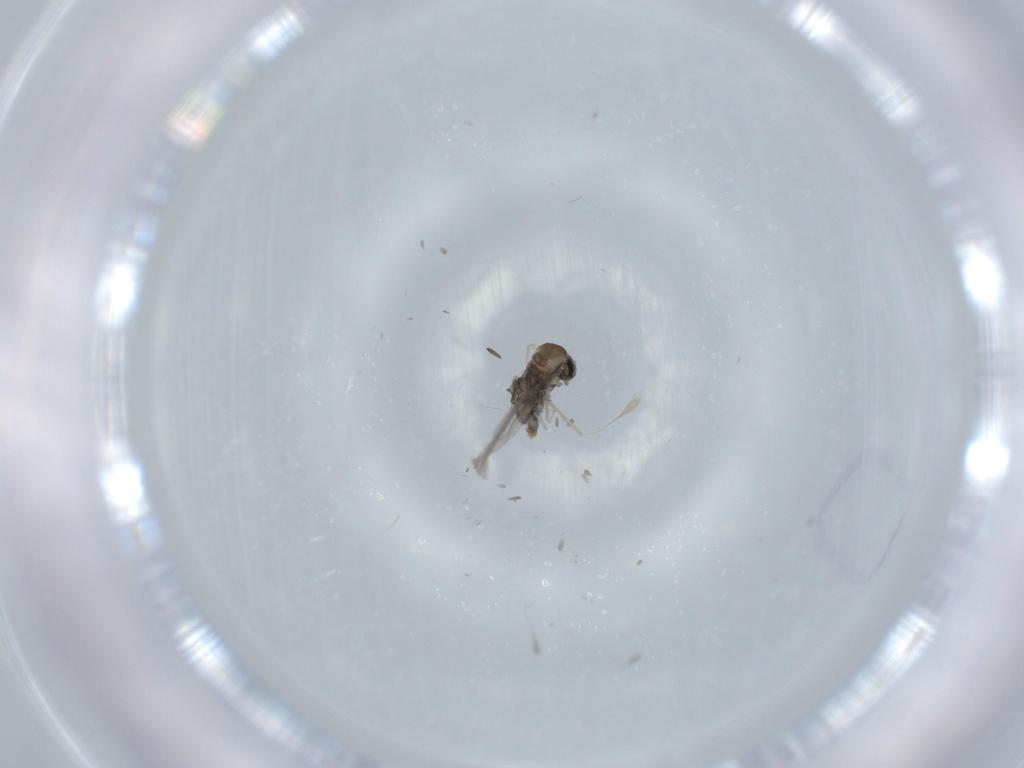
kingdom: Animalia
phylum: Arthropoda
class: Insecta
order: Diptera
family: Cecidomyiidae
